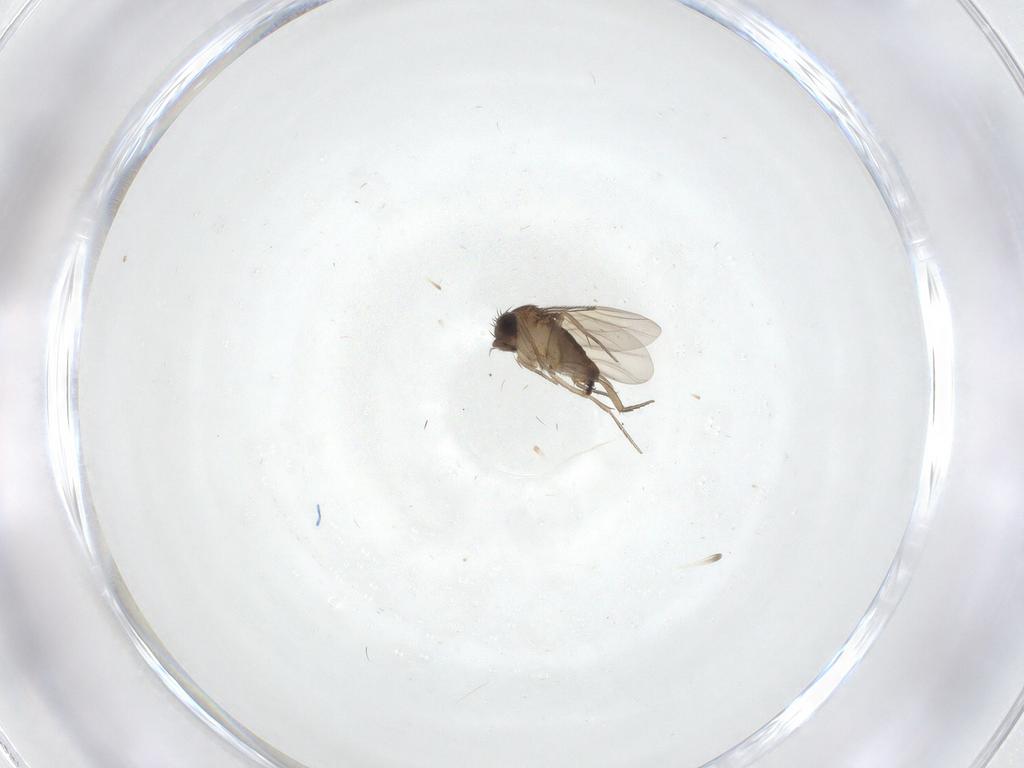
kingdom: Animalia
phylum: Arthropoda
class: Insecta
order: Diptera
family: Phoridae
